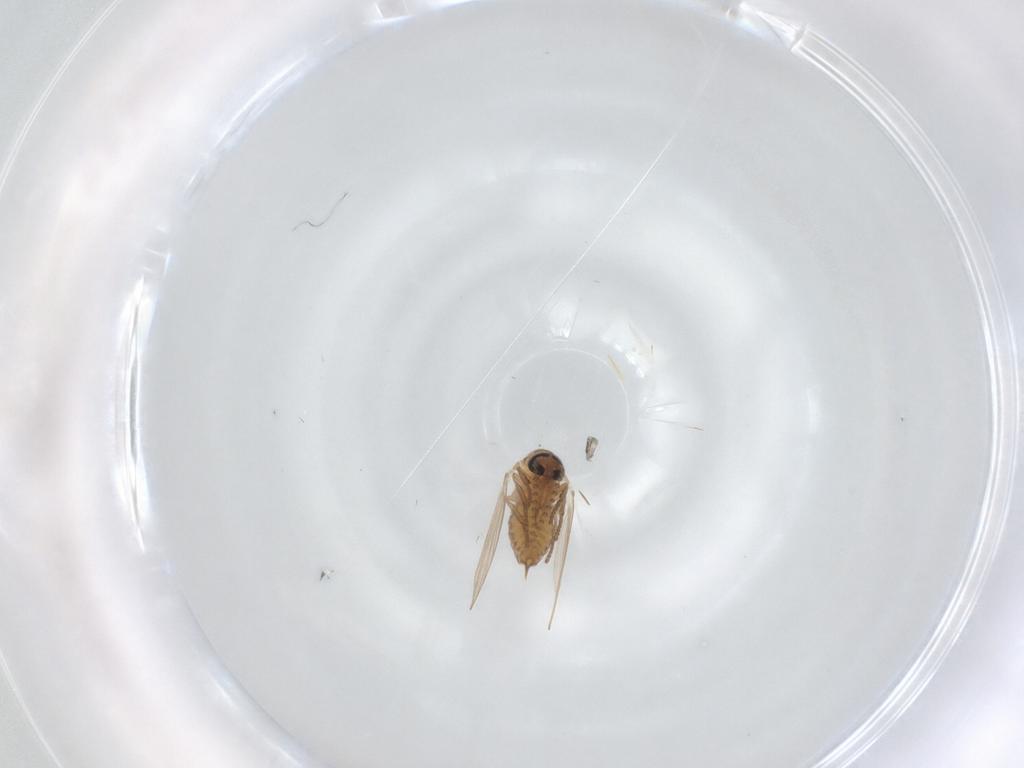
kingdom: Animalia
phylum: Arthropoda
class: Insecta
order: Diptera
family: Psychodidae
